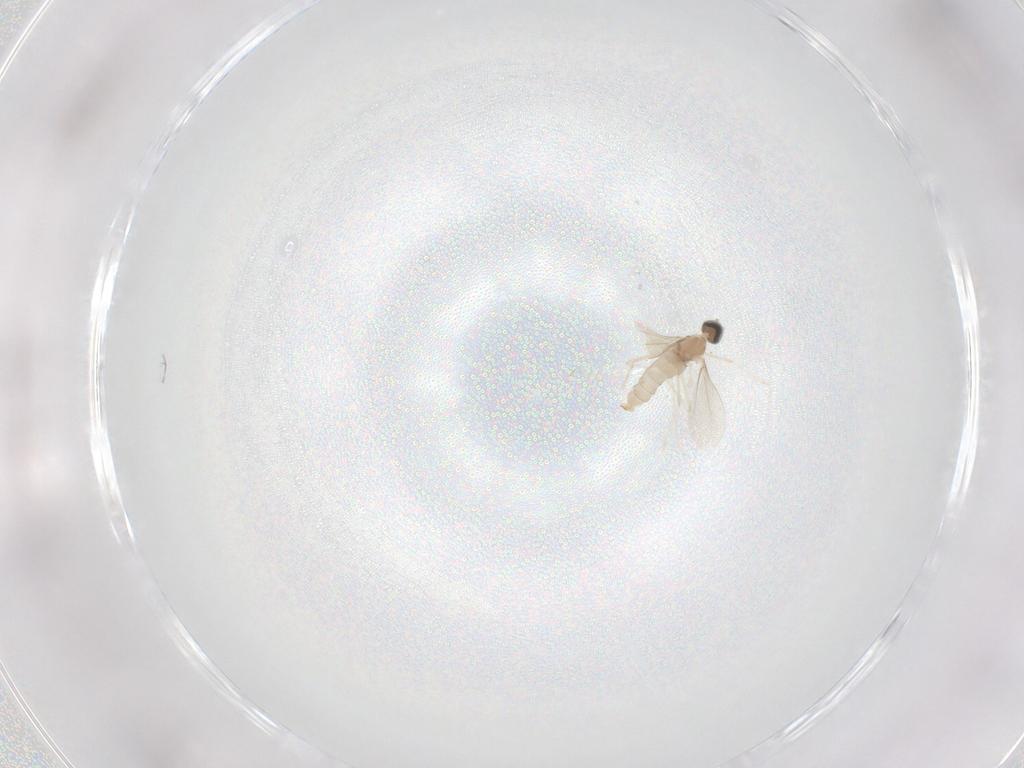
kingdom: Animalia
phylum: Arthropoda
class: Insecta
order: Diptera
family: Cecidomyiidae
